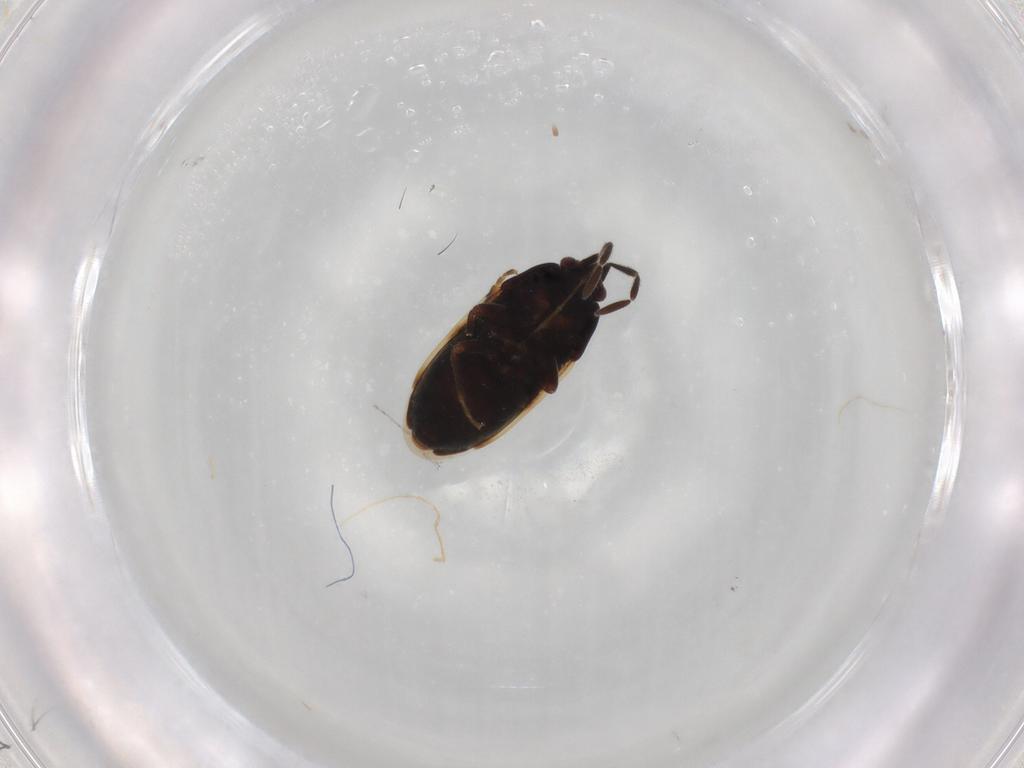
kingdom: Animalia
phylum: Arthropoda
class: Insecta
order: Hemiptera
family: Rhyparochromidae
